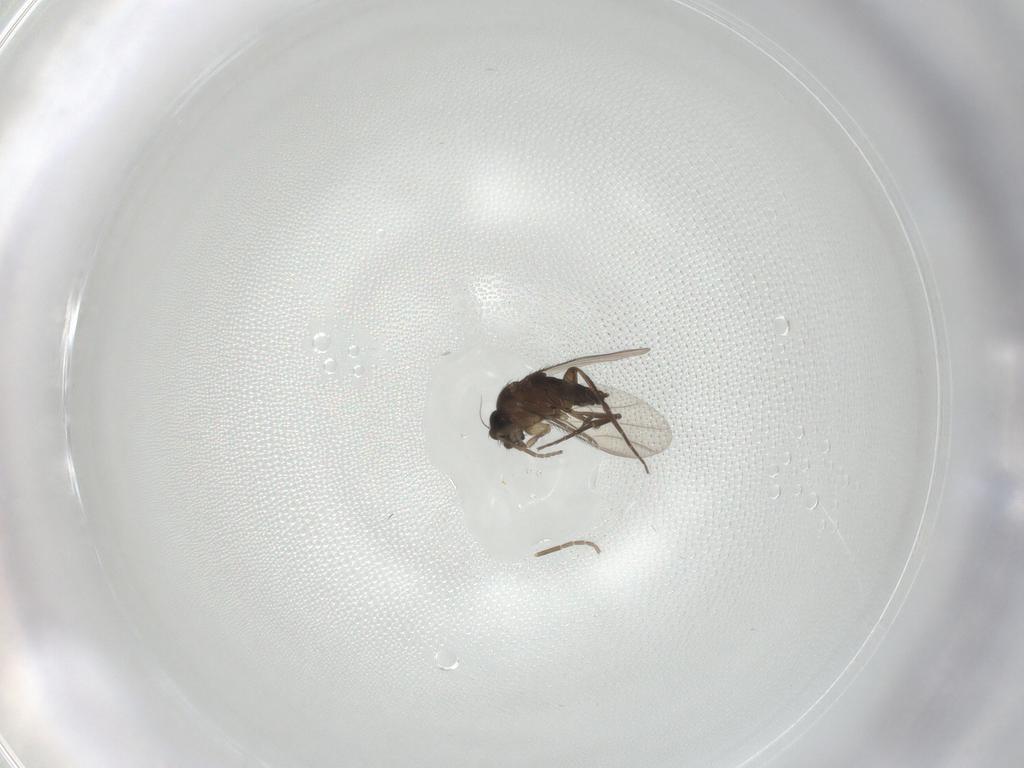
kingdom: Animalia
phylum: Arthropoda
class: Insecta
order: Diptera
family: Phoridae
